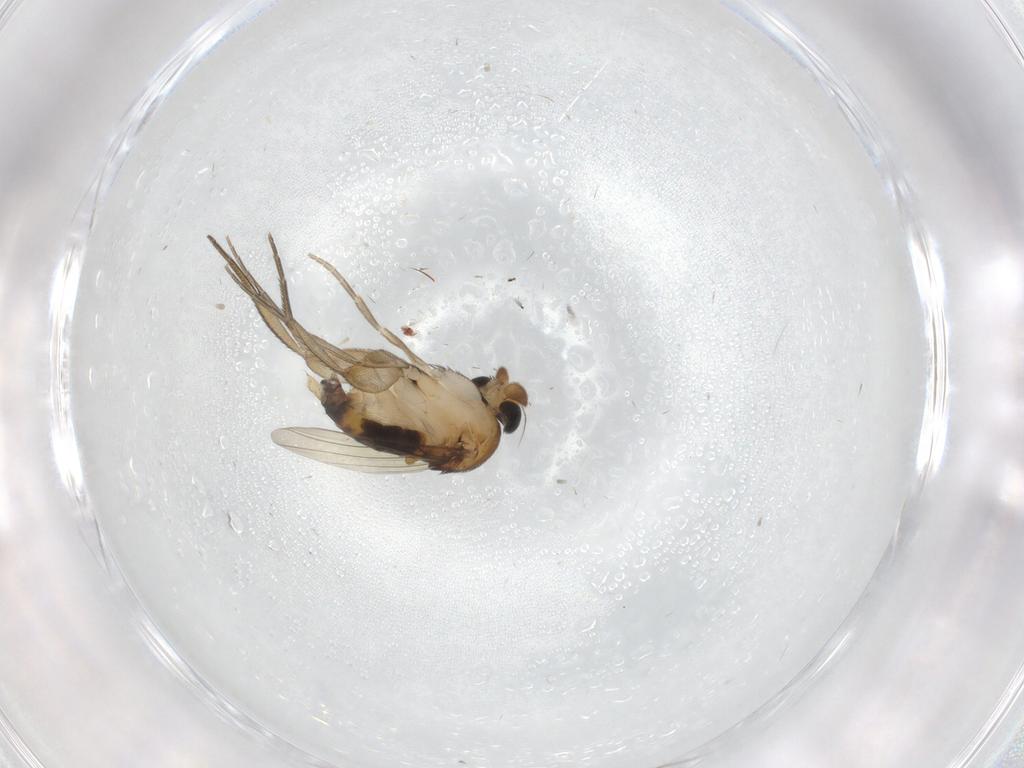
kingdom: Animalia
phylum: Arthropoda
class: Insecta
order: Diptera
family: Phoridae
